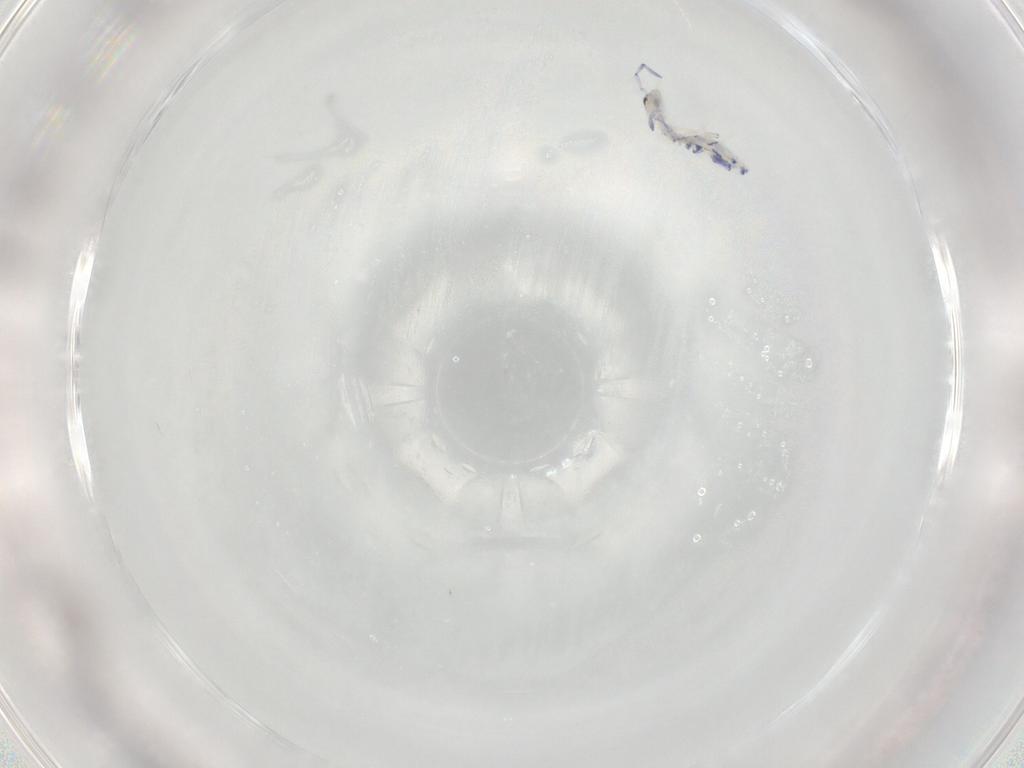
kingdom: Animalia
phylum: Arthropoda
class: Collembola
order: Entomobryomorpha
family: Entomobryidae
